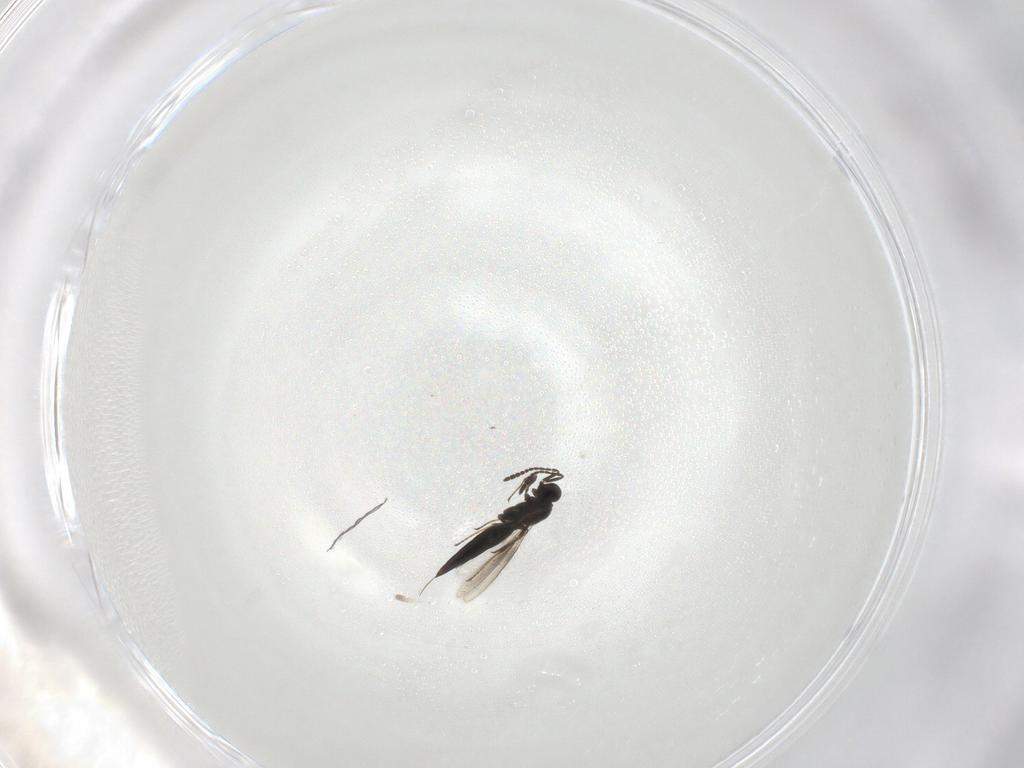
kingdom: Animalia
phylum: Arthropoda
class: Insecta
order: Hymenoptera
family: Scelionidae
